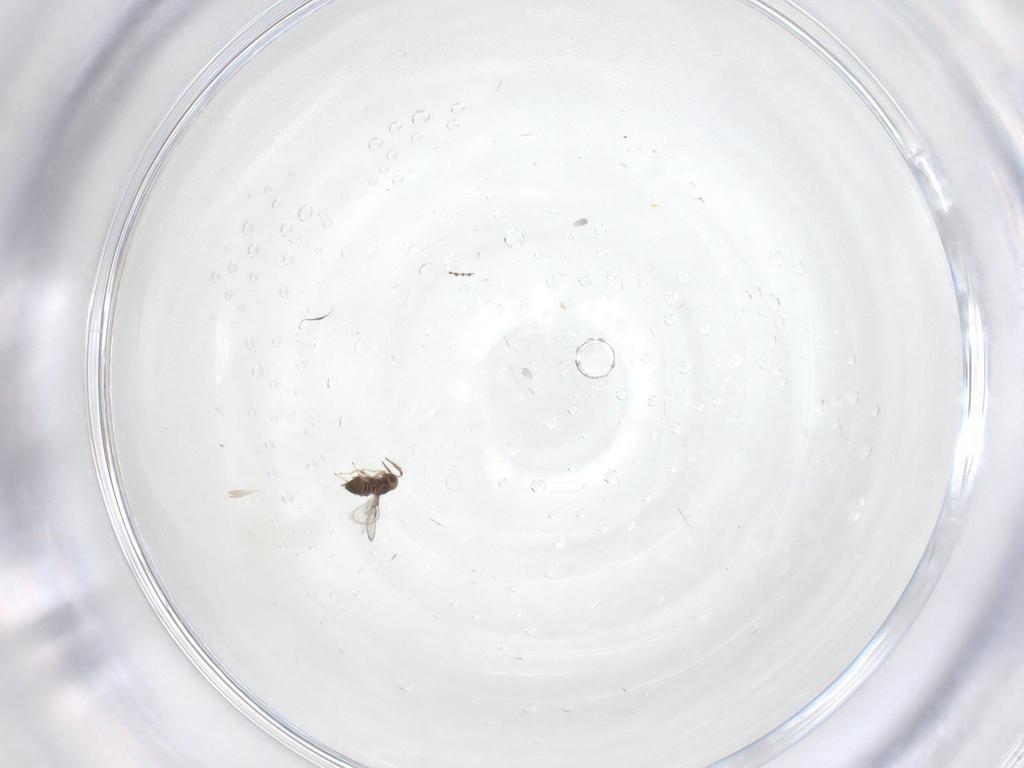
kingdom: Animalia
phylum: Arthropoda
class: Insecta
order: Hymenoptera
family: Trichogrammatidae
